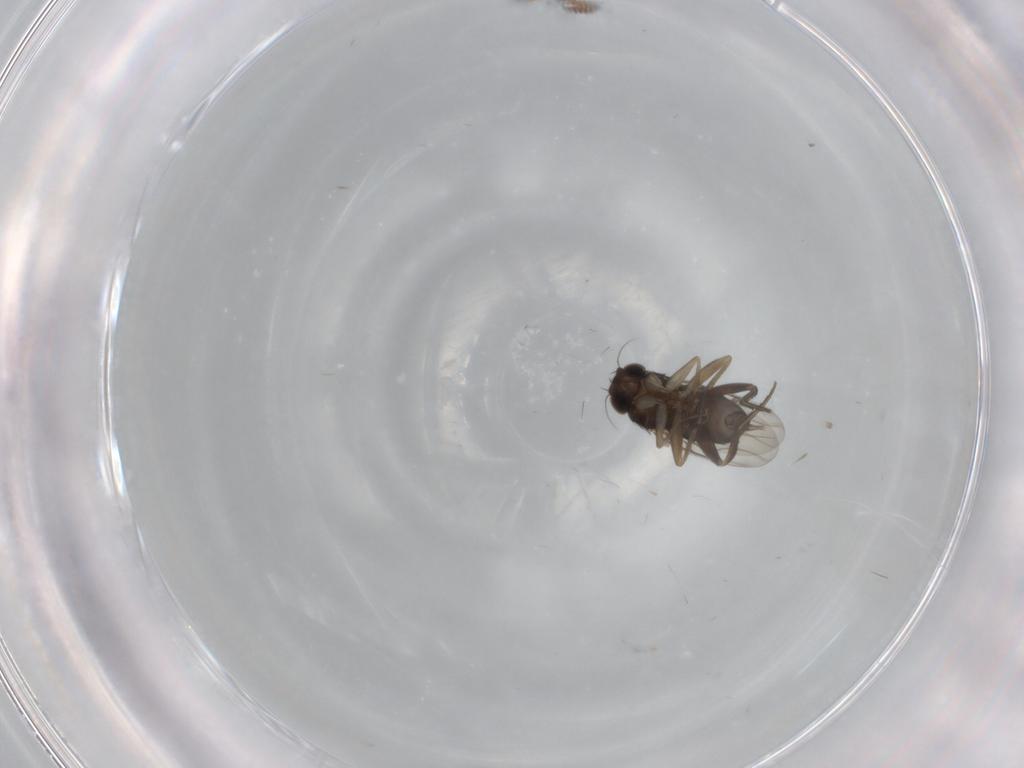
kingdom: Animalia
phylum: Arthropoda
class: Insecta
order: Diptera
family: Phoridae
